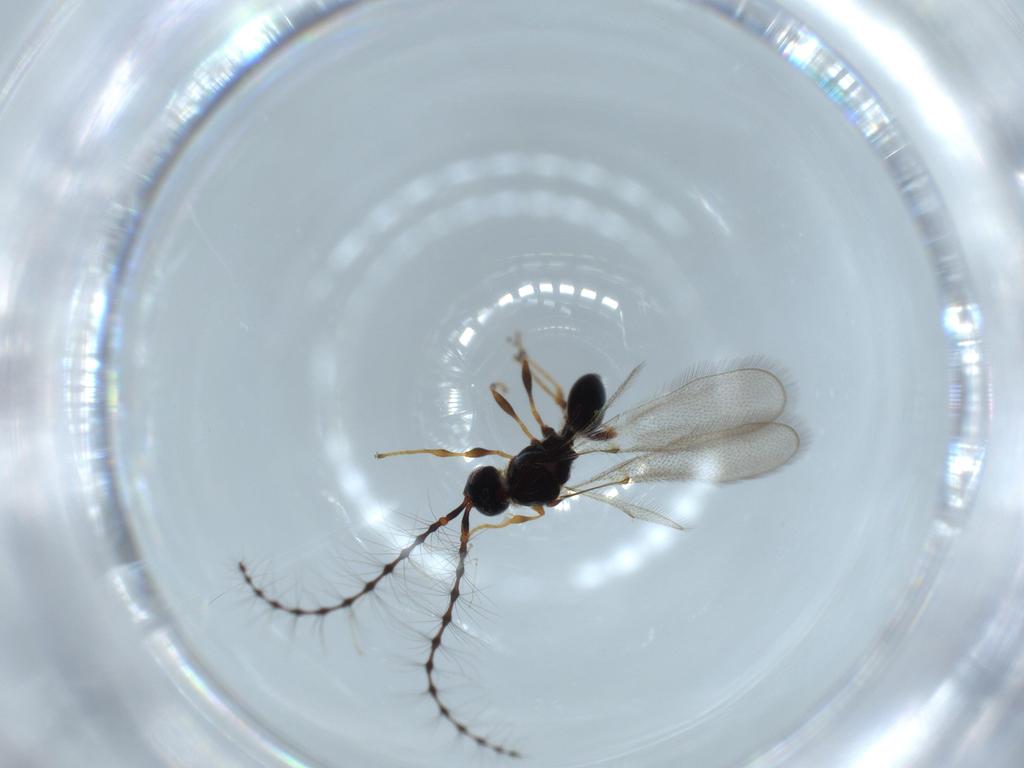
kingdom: Animalia
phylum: Arthropoda
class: Insecta
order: Hymenoptera
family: Diapriidae
